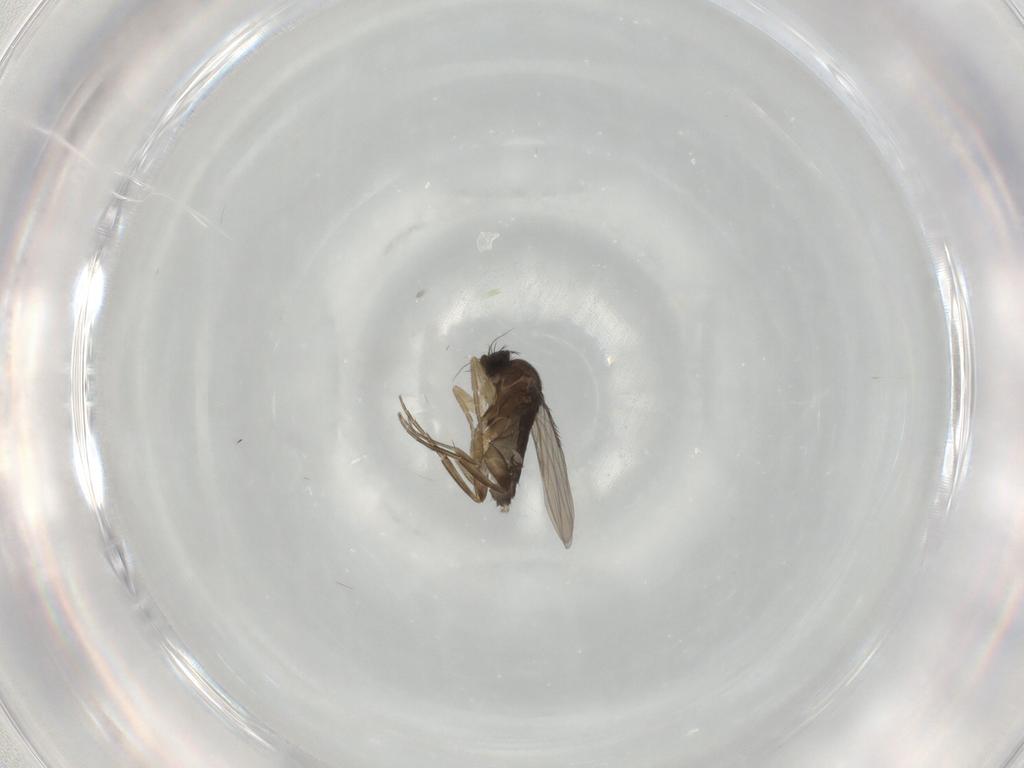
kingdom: Animalia
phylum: Arthropoda
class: Insecta
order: Diptera
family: Phoridae
